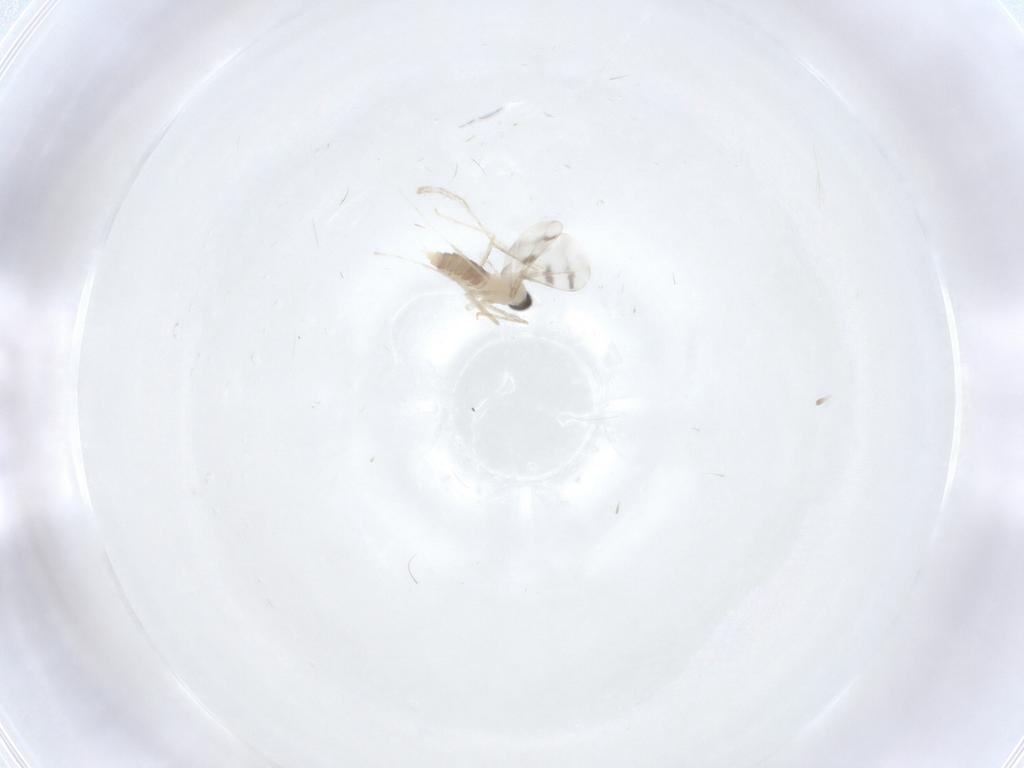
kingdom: Animalia
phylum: Arthropoda
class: Insecta
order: Diptera
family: Cecidomyiidae
